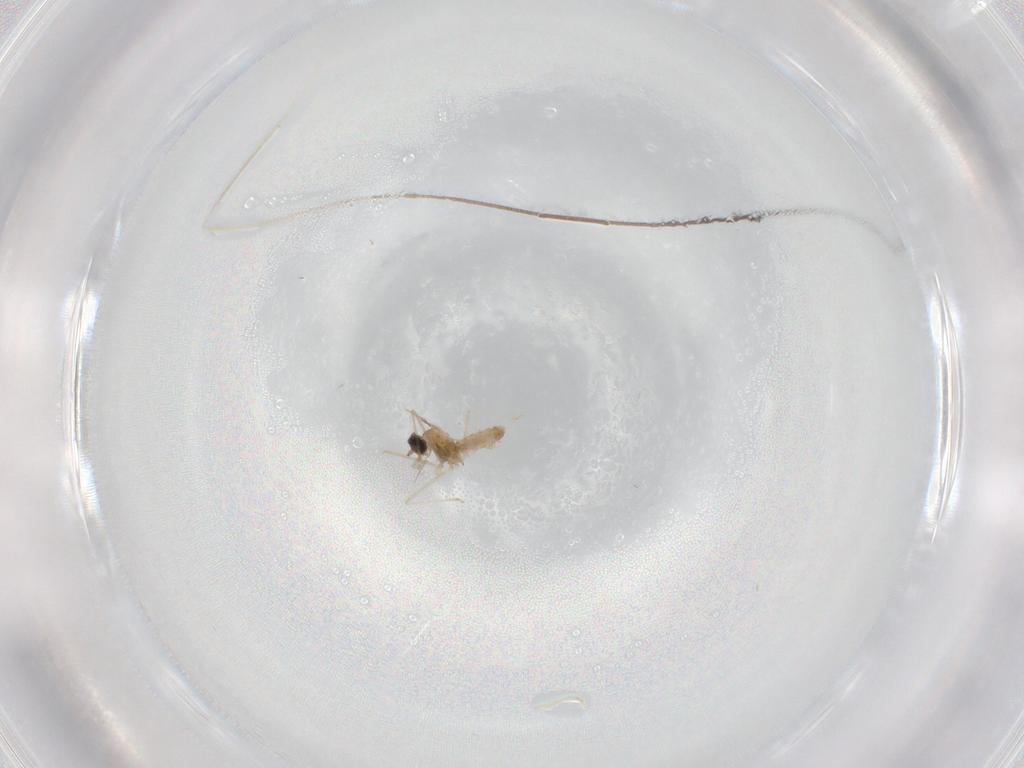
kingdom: Animalia
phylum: Arthropoda
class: Insecta
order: Diptera
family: Cecidomyiidae
